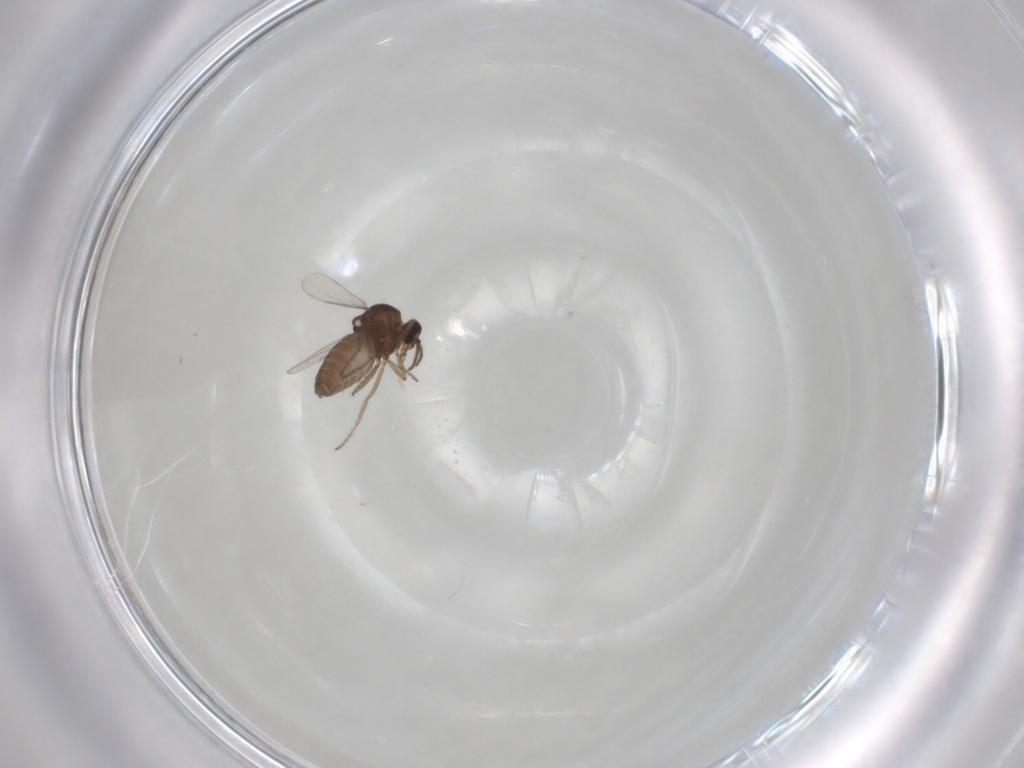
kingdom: Animalia
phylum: Arthropoda
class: Insecta
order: Diptera
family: Ceratopogonidae
